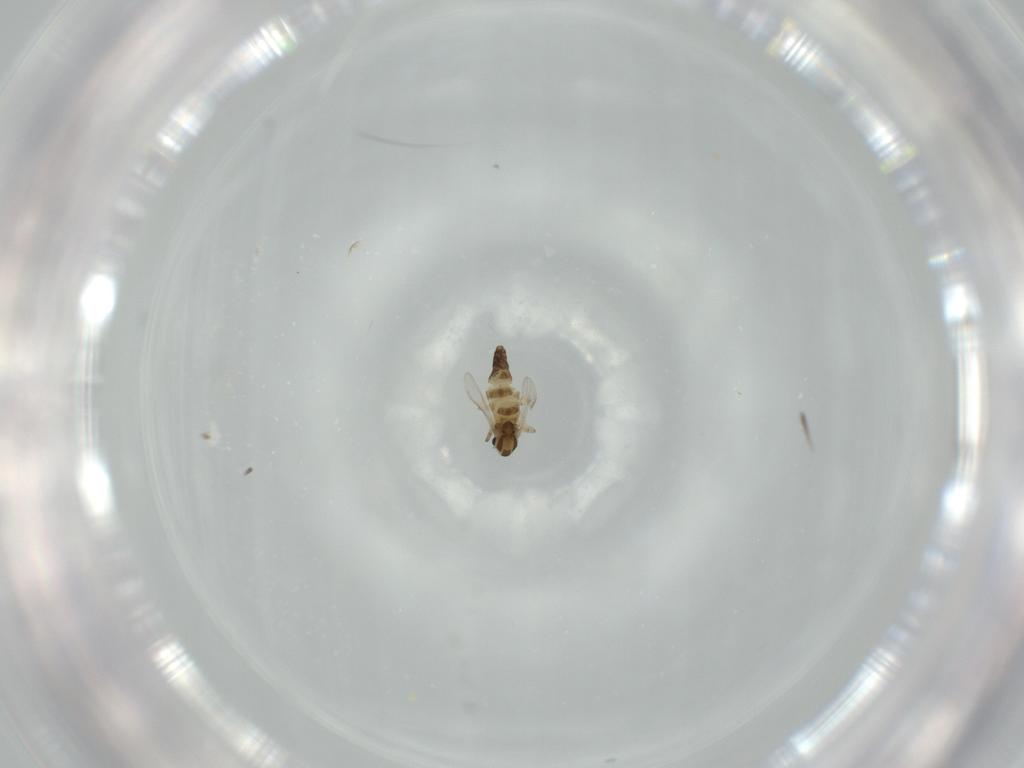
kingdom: Animalia
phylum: Arthropoda
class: Insecta
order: Diptera
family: Chironomidae
